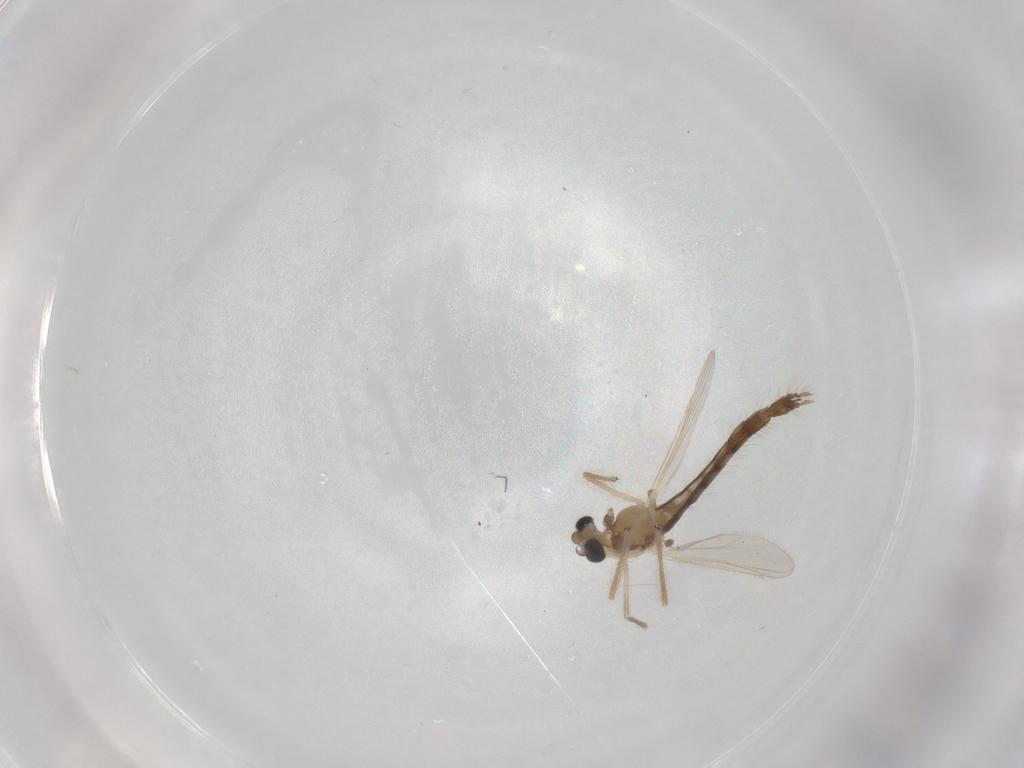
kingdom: Animalia
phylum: Arthropoda
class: Insecta
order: Diptera
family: Chironomidae
